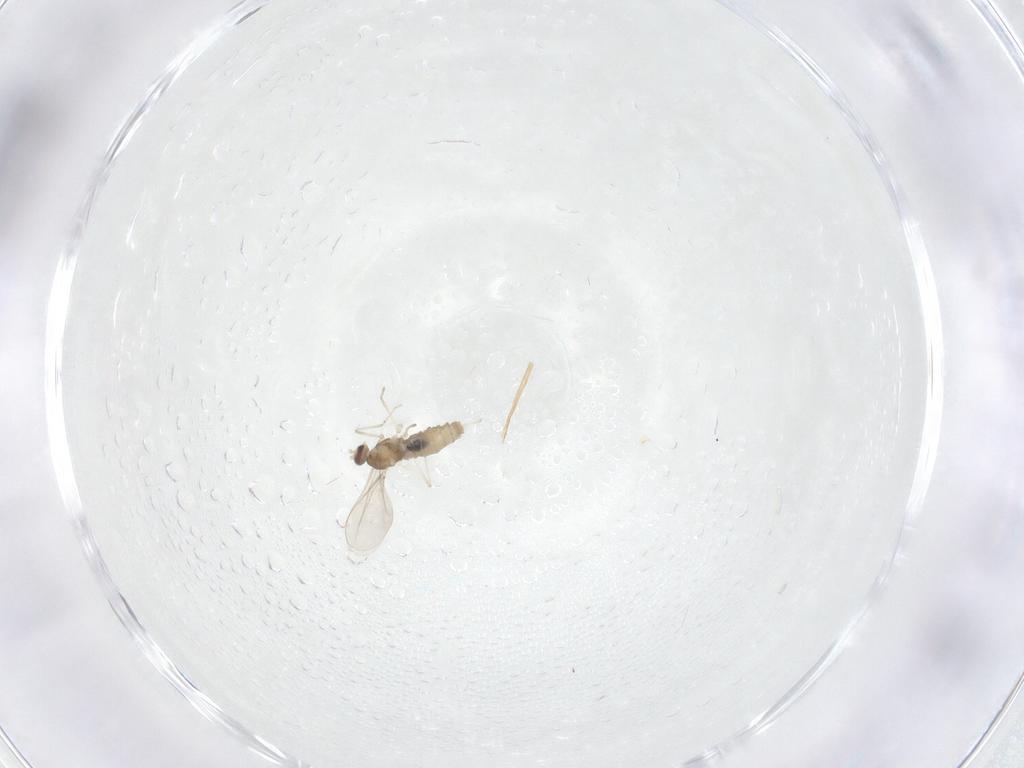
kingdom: Animalia
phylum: Arthropoda
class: Insecta
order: Diptera
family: Cecidomyiidae
